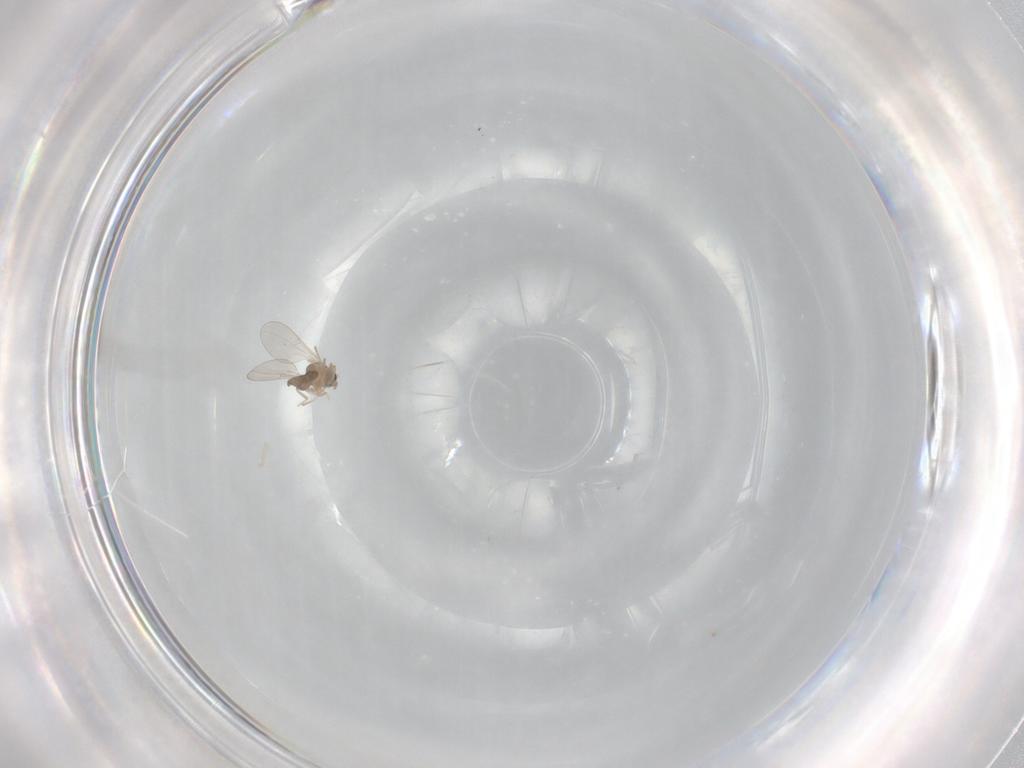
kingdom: Animalia
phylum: Arthropoda
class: Insecta
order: Diptera
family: Cecidomyiidae
